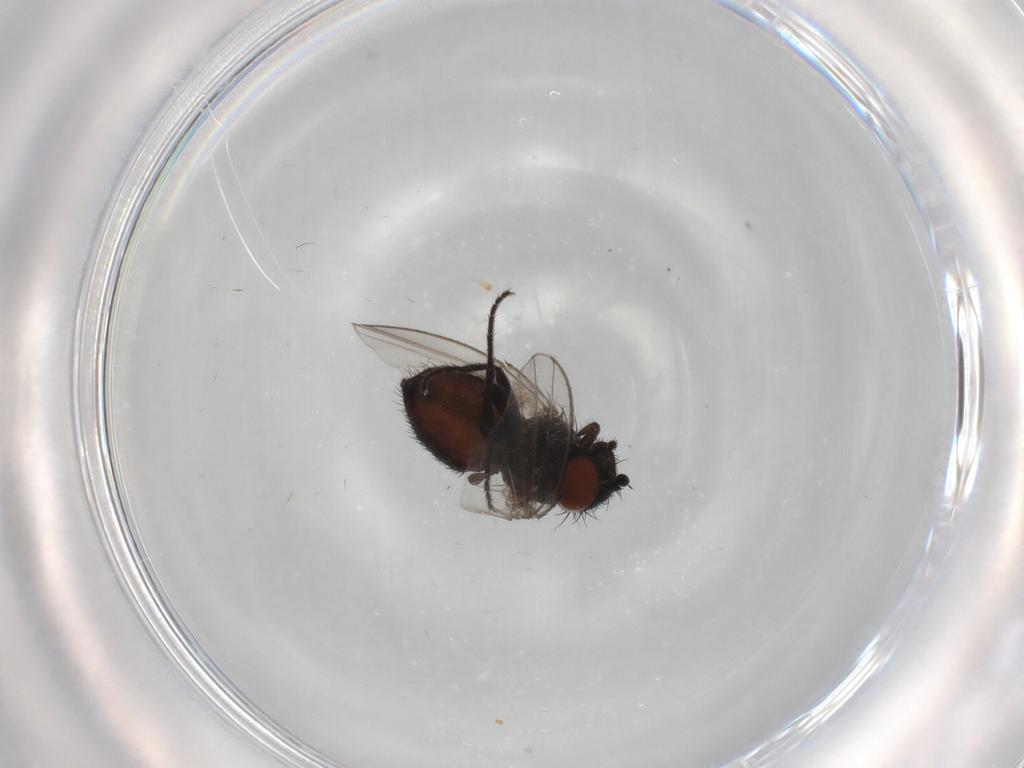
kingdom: Animalia
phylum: Arthropoda
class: Insecta
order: Diptera
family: Milichiidae
